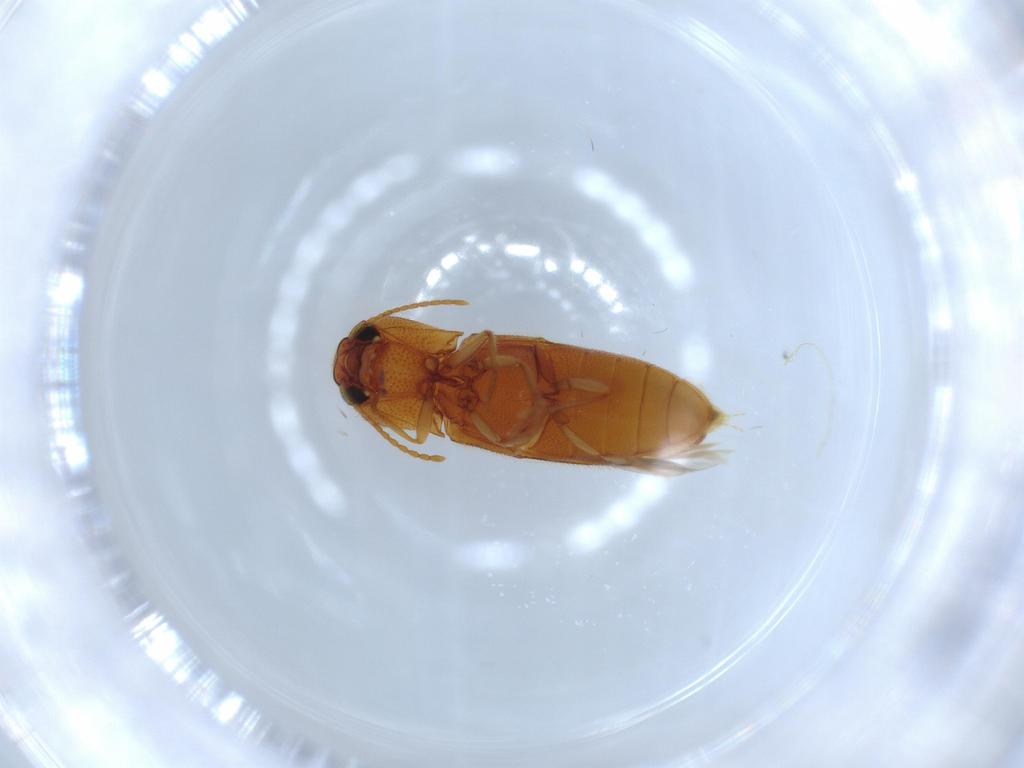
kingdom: Animalia
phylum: Arthropoda
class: Insecta
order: Coleoptera
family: Elateridae
